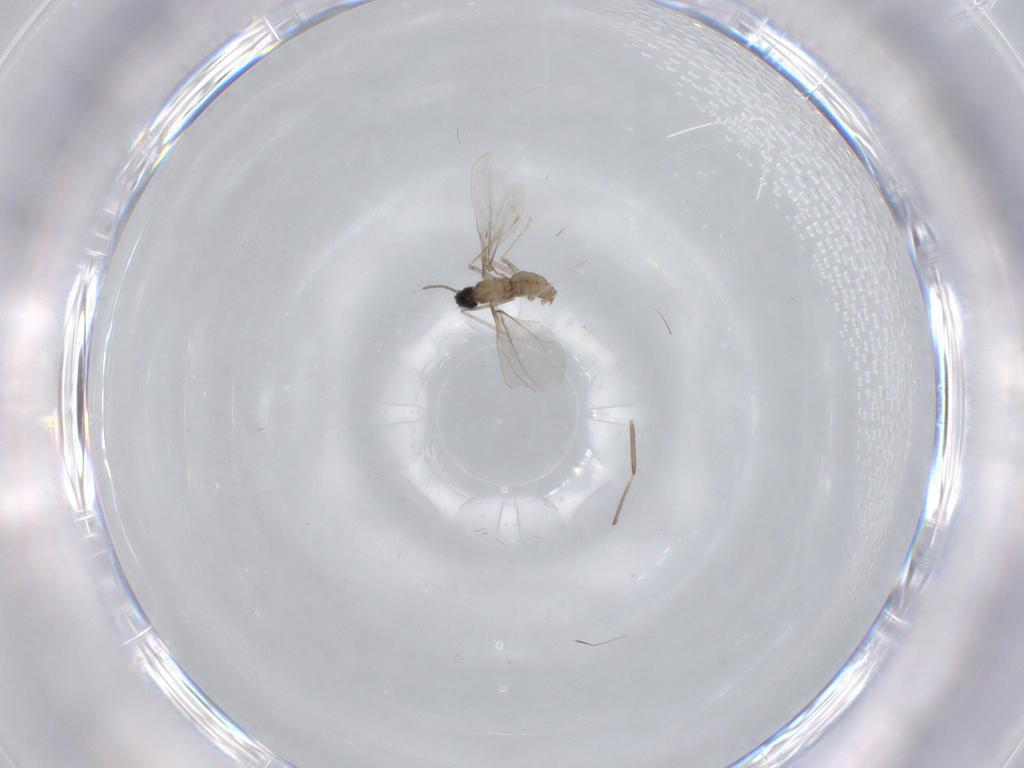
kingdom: Animalia
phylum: Arthropoda
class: Insecta
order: Diptera
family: Cecidomyiidae
